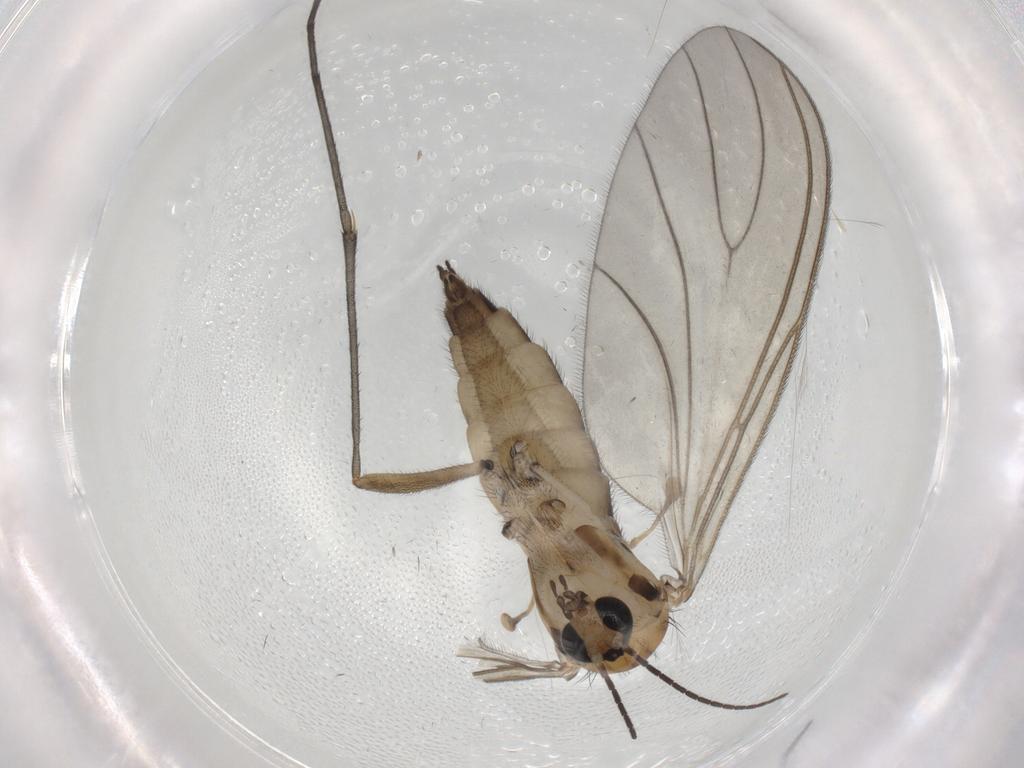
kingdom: Animalia
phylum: Arthropoda
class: Insecta
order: Diptera
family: Sciaridae
